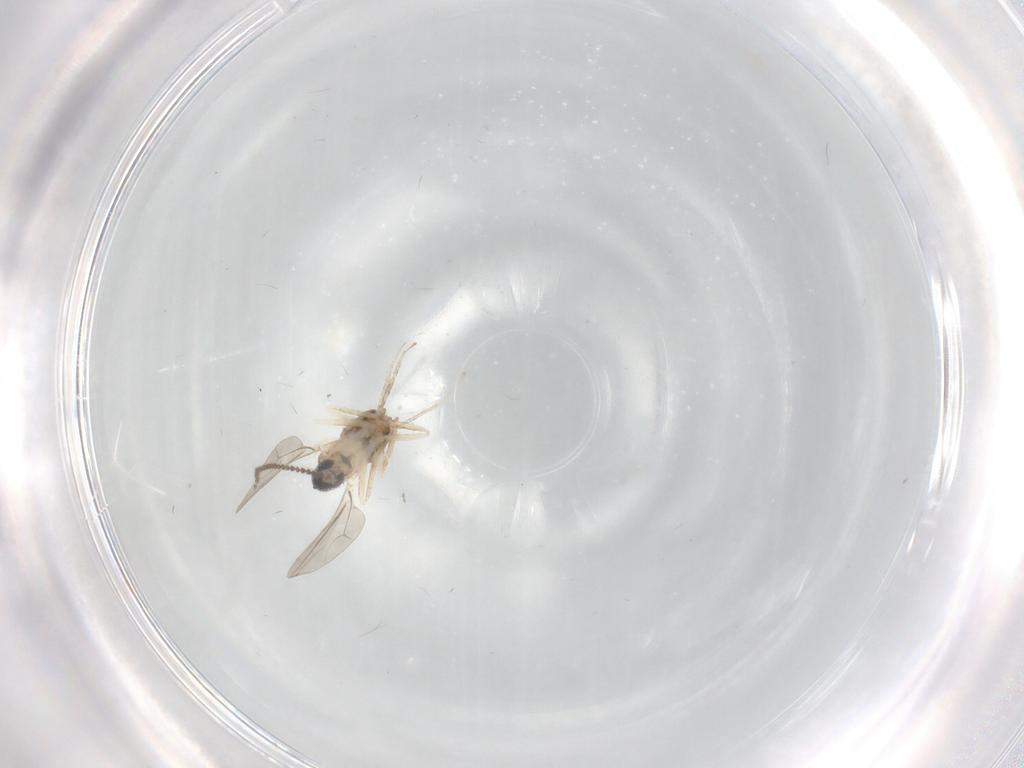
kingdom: Animalia
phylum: Arthropoda
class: Insecta
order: Diptera
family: Cecidomyiidae
